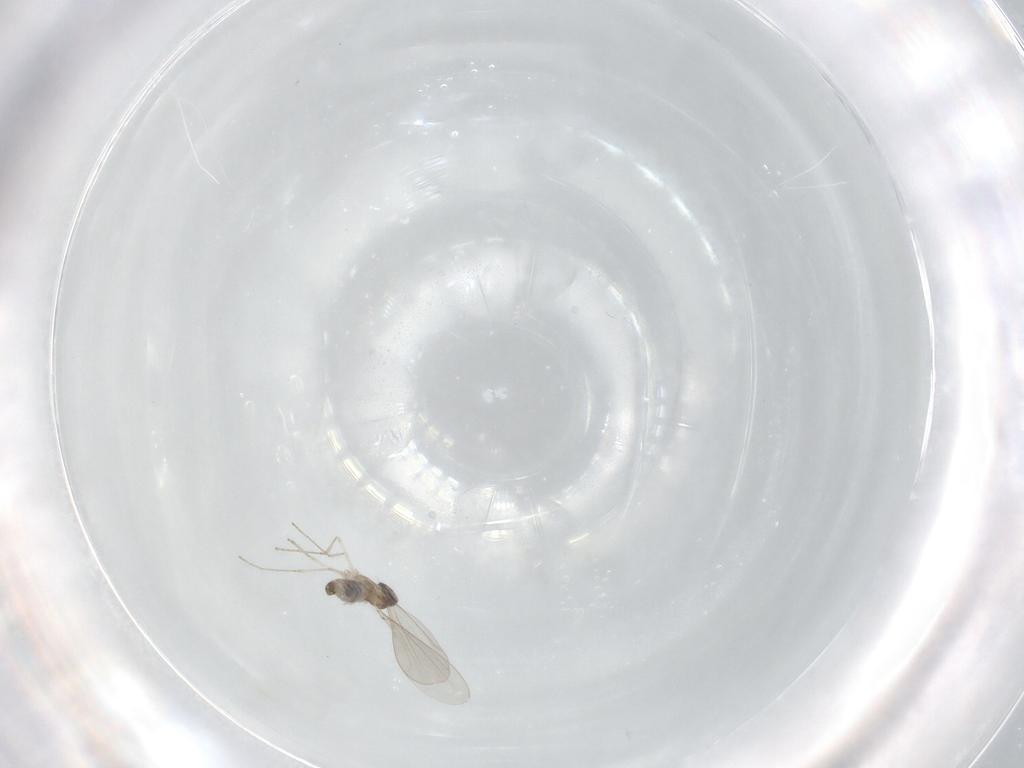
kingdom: Animalia
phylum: Arthropoda
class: Insecta
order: Diptera
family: Cecidomyiidae
